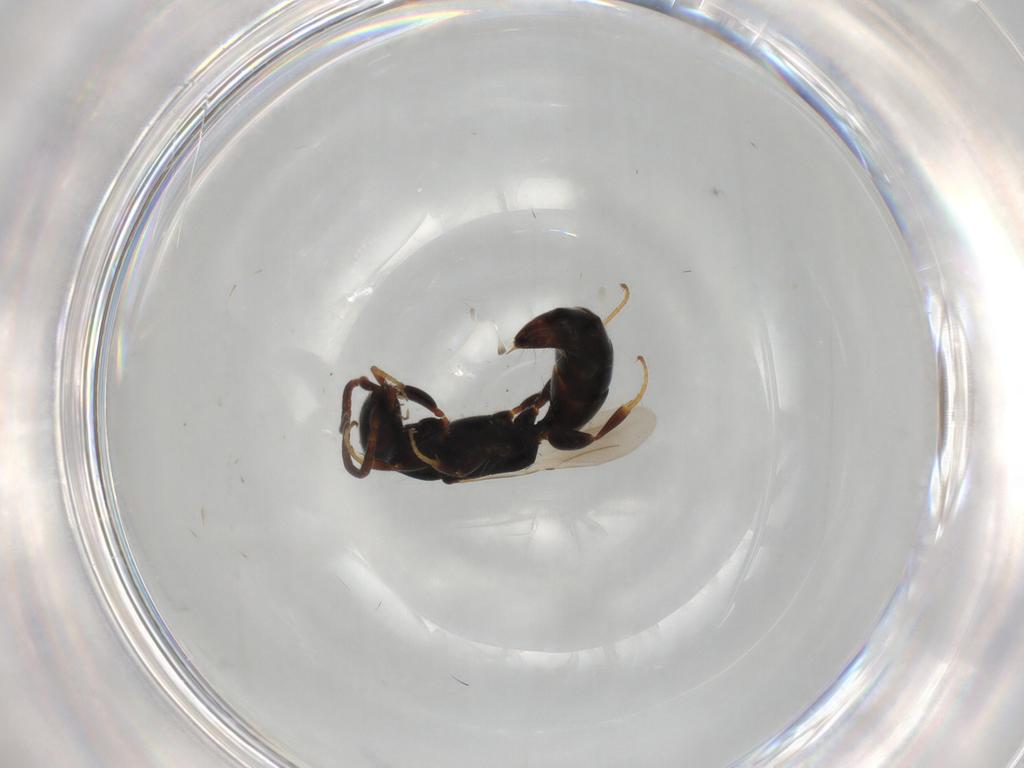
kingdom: Animalia
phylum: Arthropoda
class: Insecta
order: Hymenoptera
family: Bethylidae
